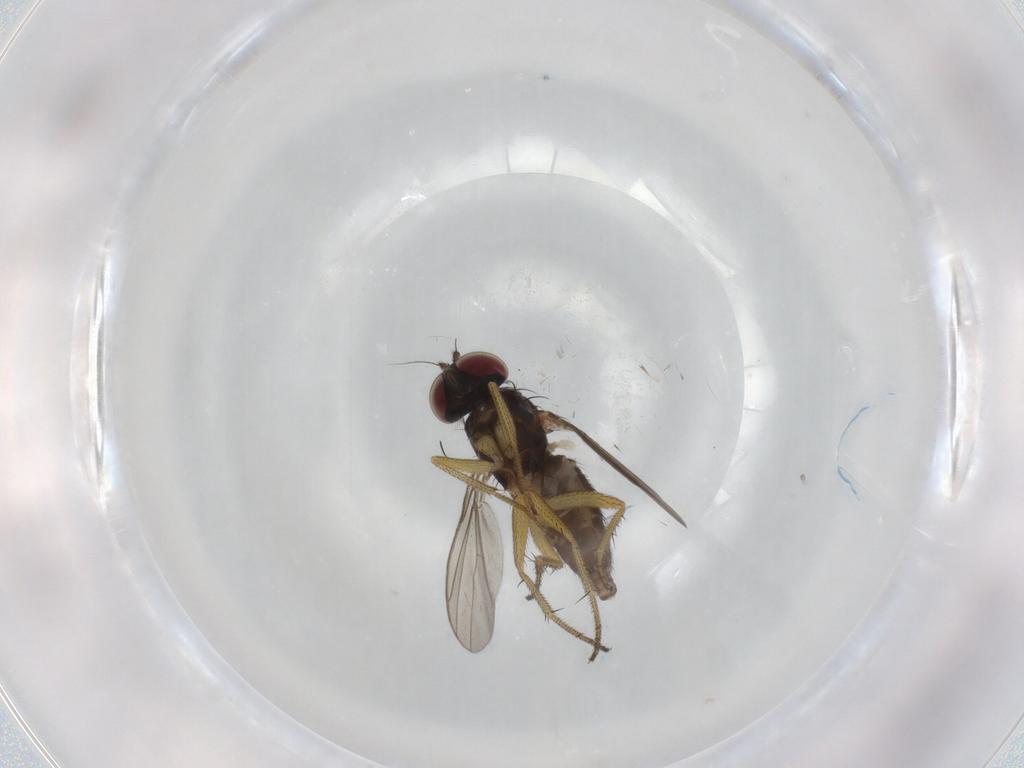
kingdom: Animalia
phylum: Arthropoda
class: Insecta
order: Diptera
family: Dolichopodidae
